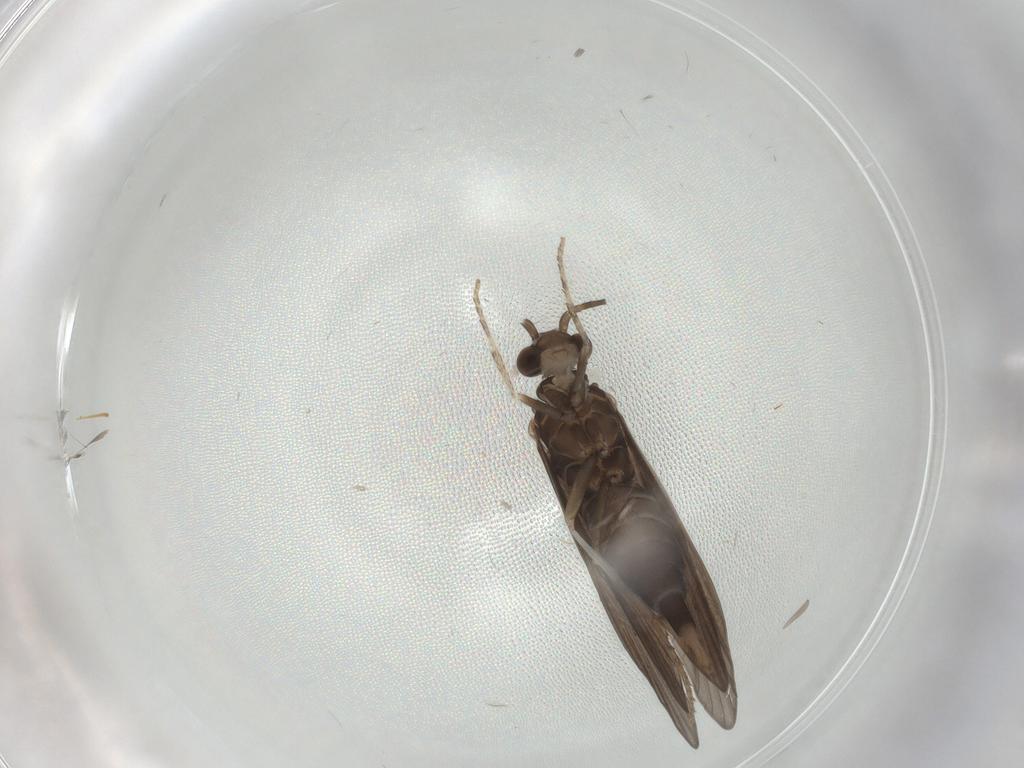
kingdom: Animalia
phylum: Arthropoda
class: Insecta
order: Trichoptera
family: Xiphocentronidae
